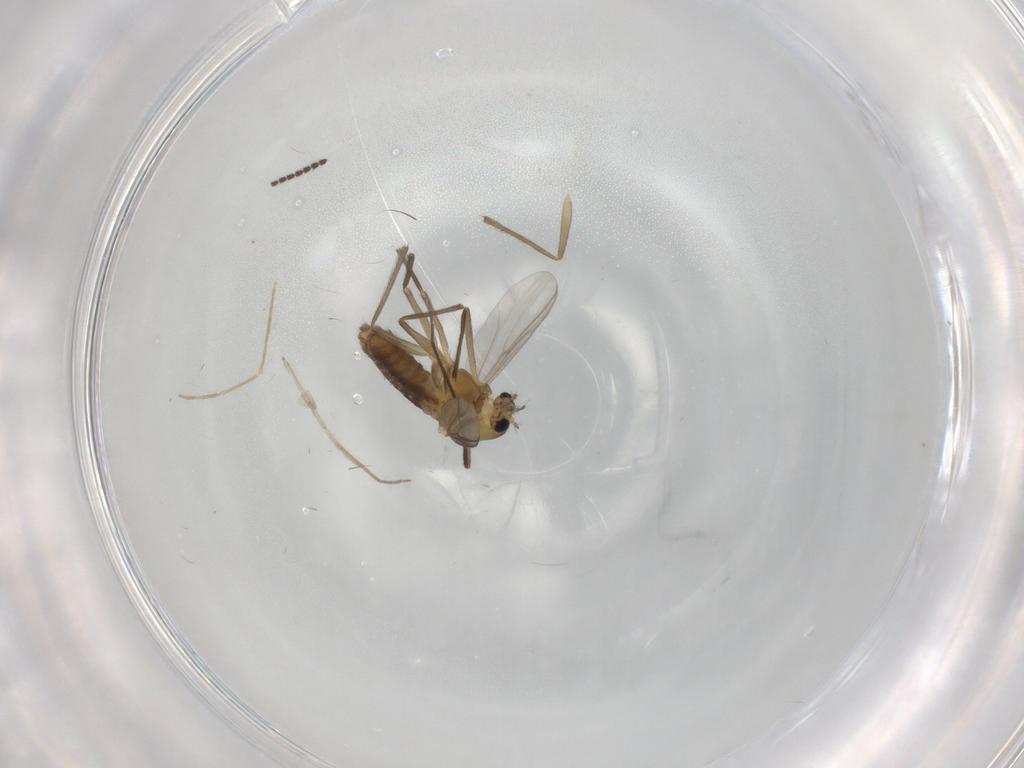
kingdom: Animalia
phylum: Arthropoda
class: Insecta
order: Diptera
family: Chironomidae
